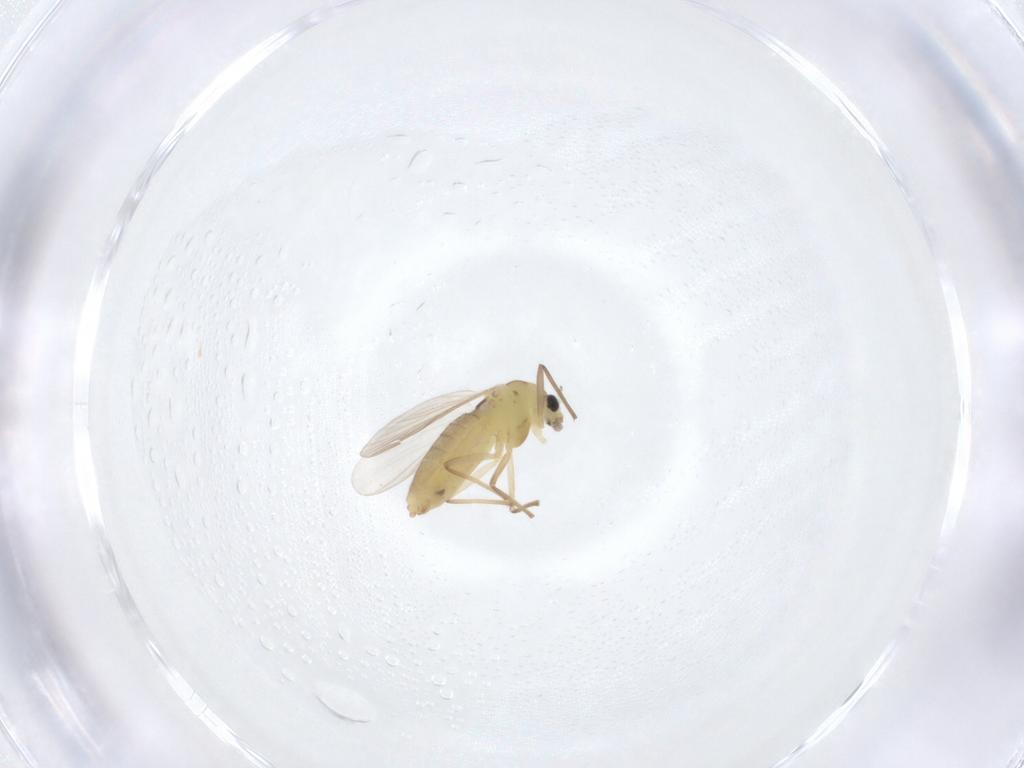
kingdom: Animalia
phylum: Arthropoda
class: Insecta
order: Diptera
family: Chironomidae
